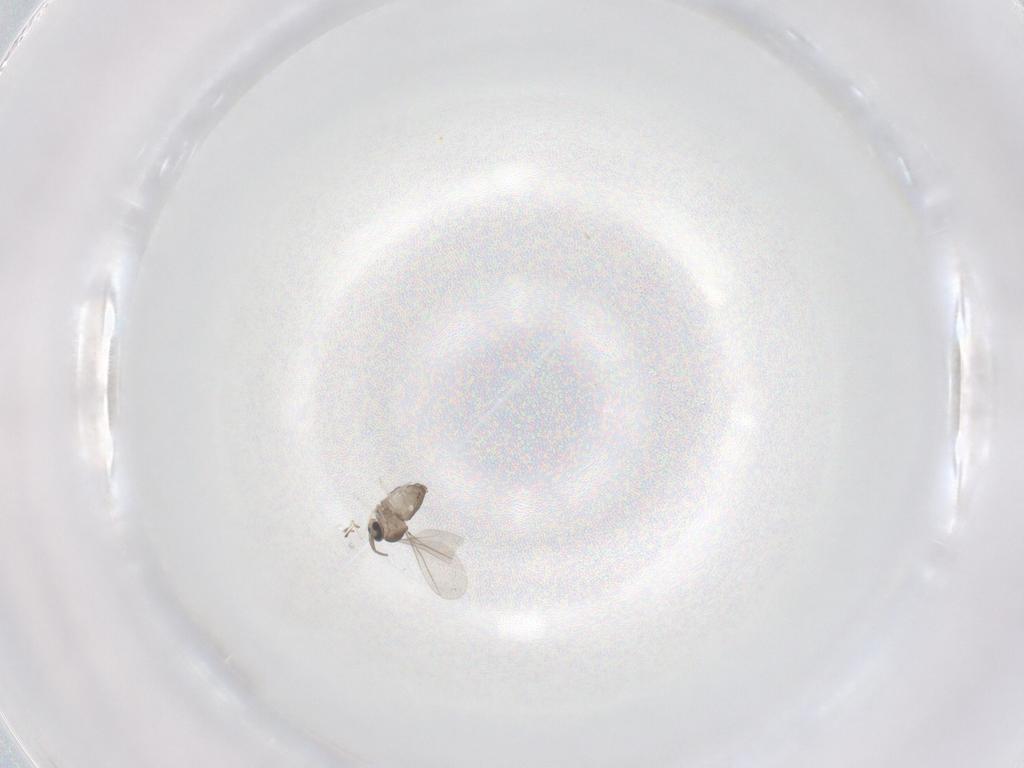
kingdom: Animalia
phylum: Arthropoda
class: Insecta
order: Diptera
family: Cecidomyiidae
